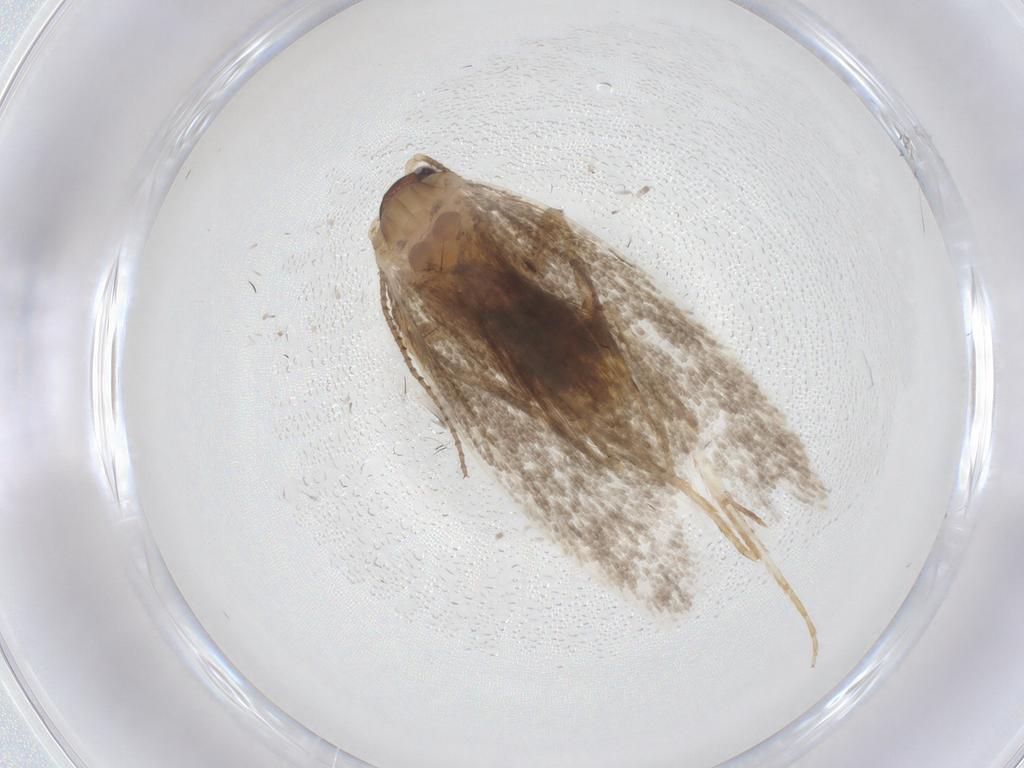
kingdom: Animalia
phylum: Arthropoda
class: Insecta
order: Lepidoptera
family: Dryadaulidae
